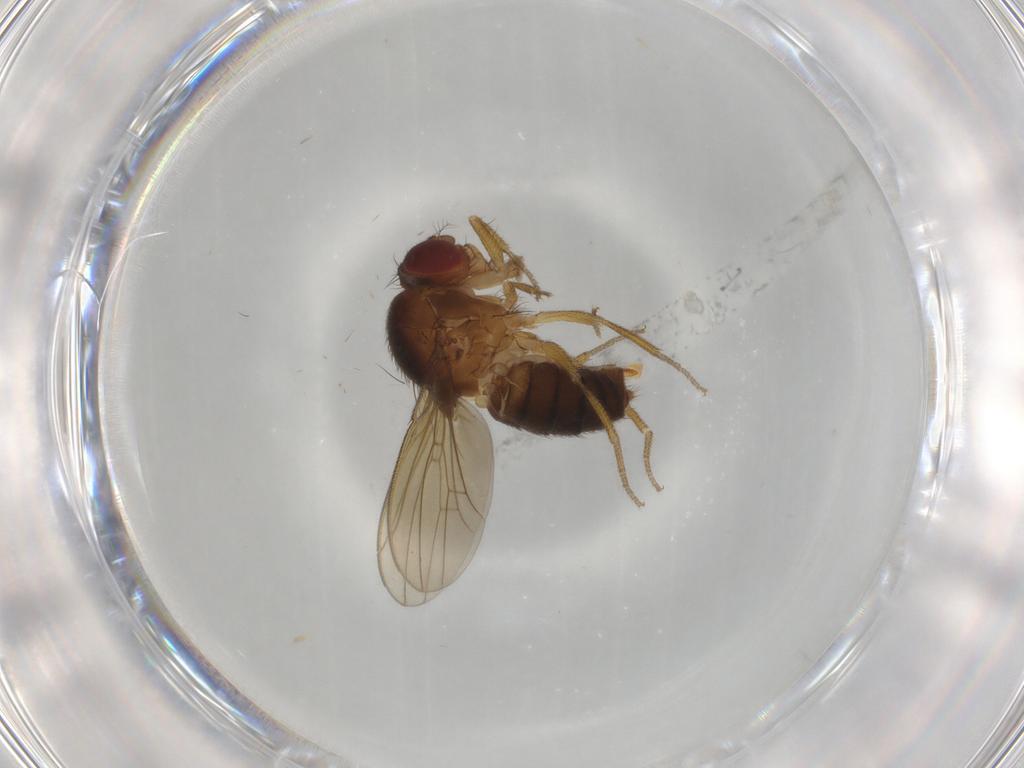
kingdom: Animalia
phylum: Arthropoda
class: Insecta
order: Diptera
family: Drosophilidae
